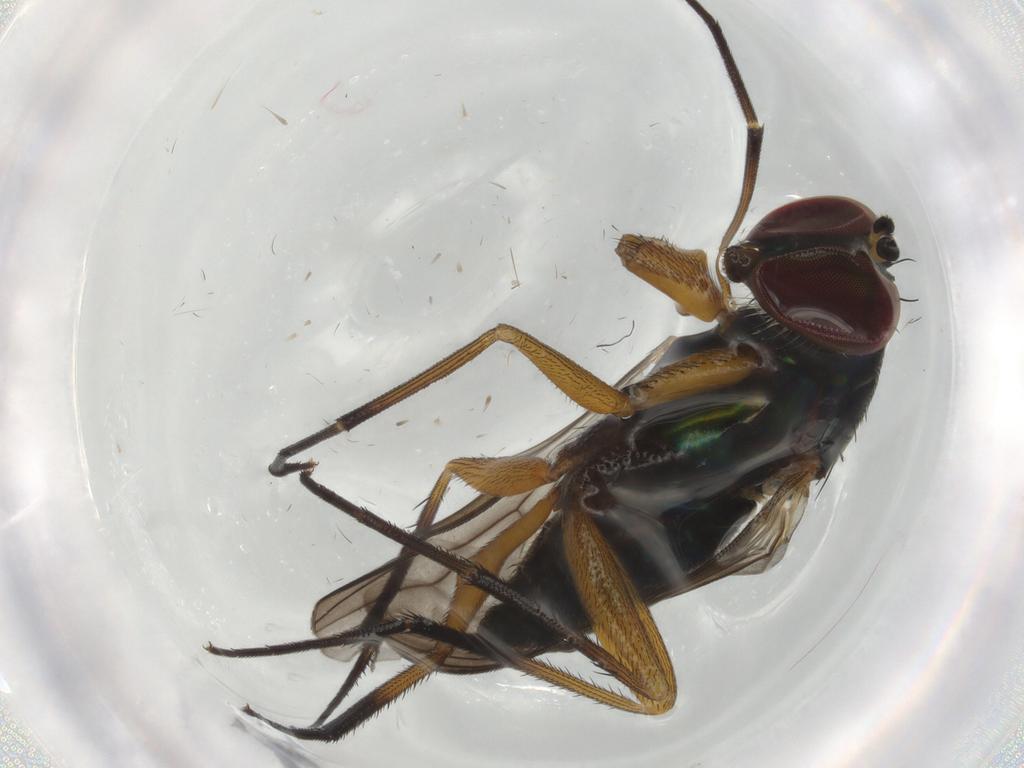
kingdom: Animalia
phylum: Arthropoda
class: Insecta
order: Diptera
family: Dolichopodidae
